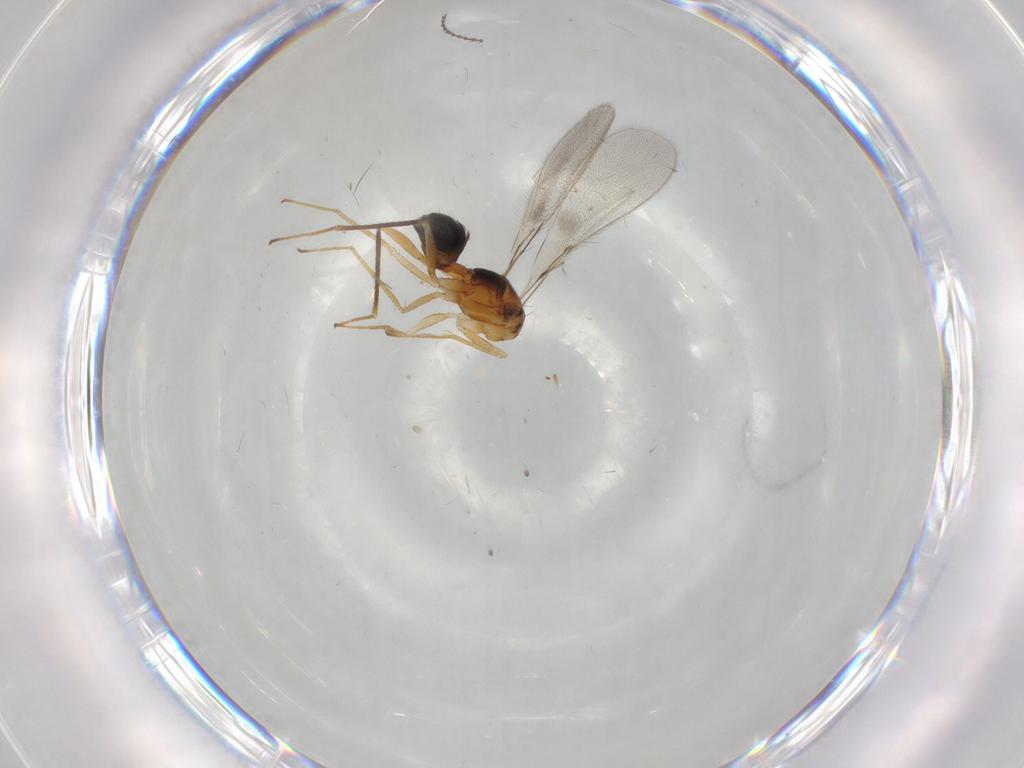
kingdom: Animalia
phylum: Arthropoda
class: Insecta
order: Hymenoptera
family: Mymaridae
